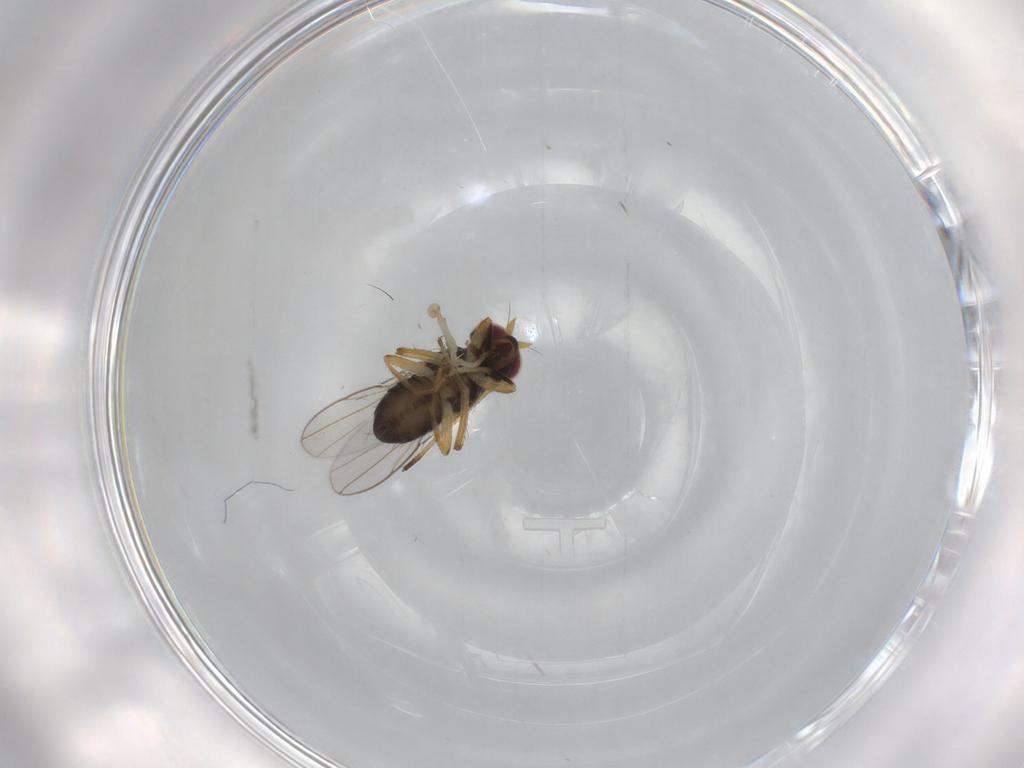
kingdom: Animalia
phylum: Arthropoda
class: Insecta
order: Diptera
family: Ephydridae
